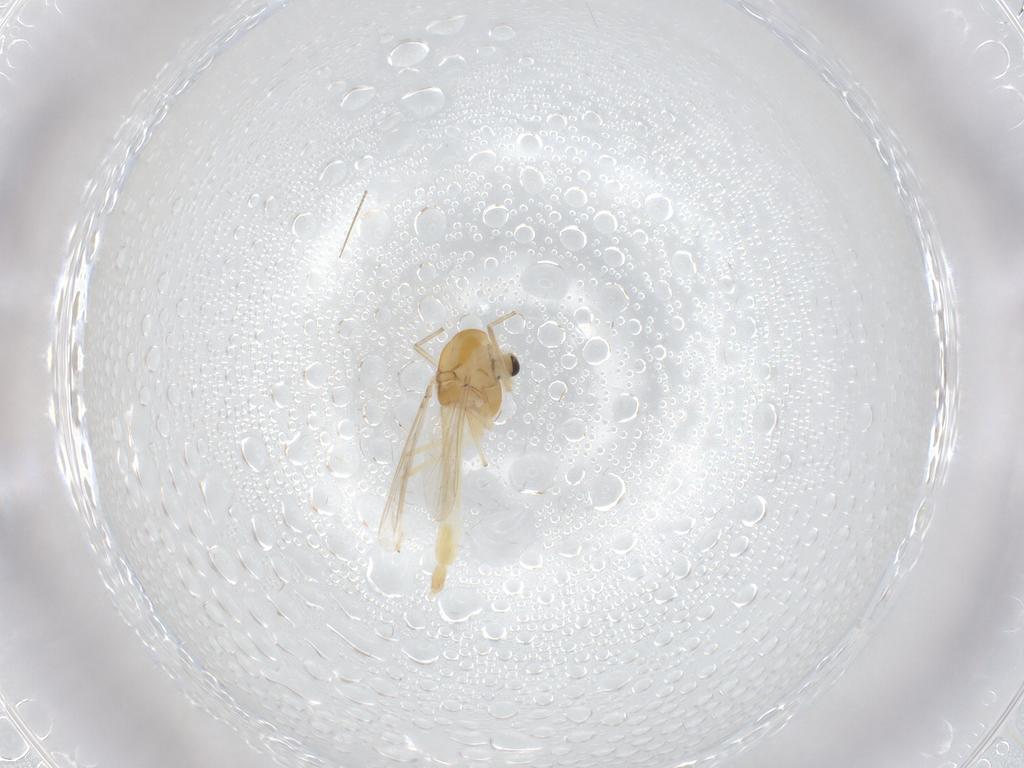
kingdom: Animalia
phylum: Arthropoda
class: Insecta
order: Diptera
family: Chironomidae
